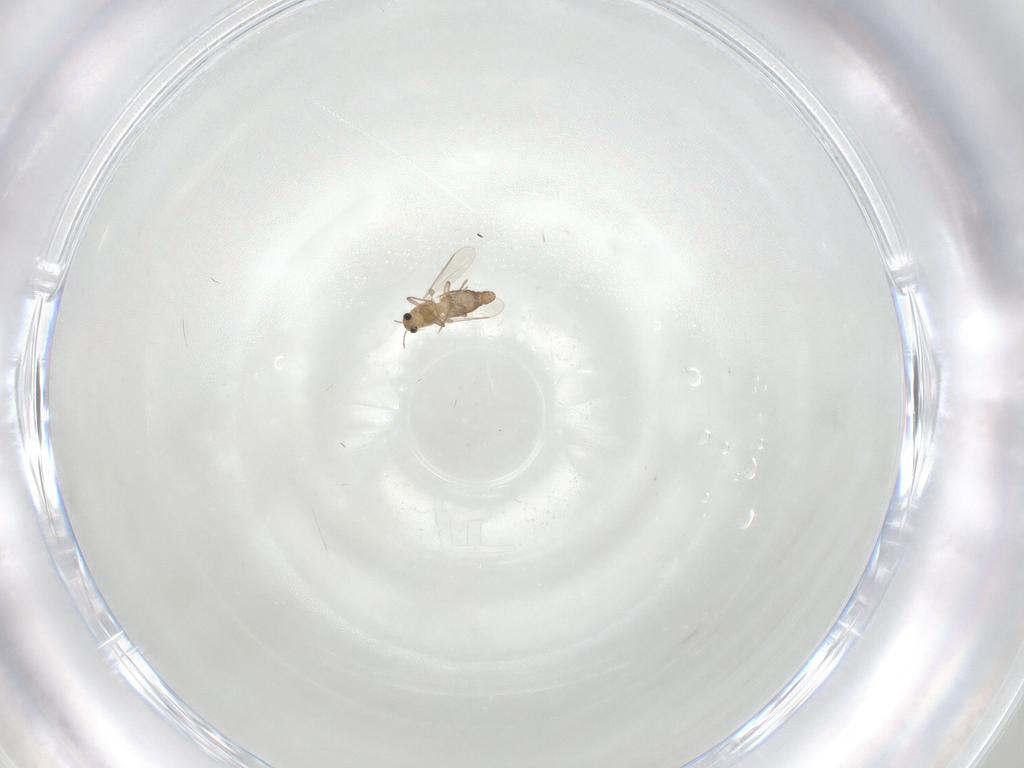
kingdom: Animalia
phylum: Arthropoda
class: Insecta
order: Diptera
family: Chironomidae
